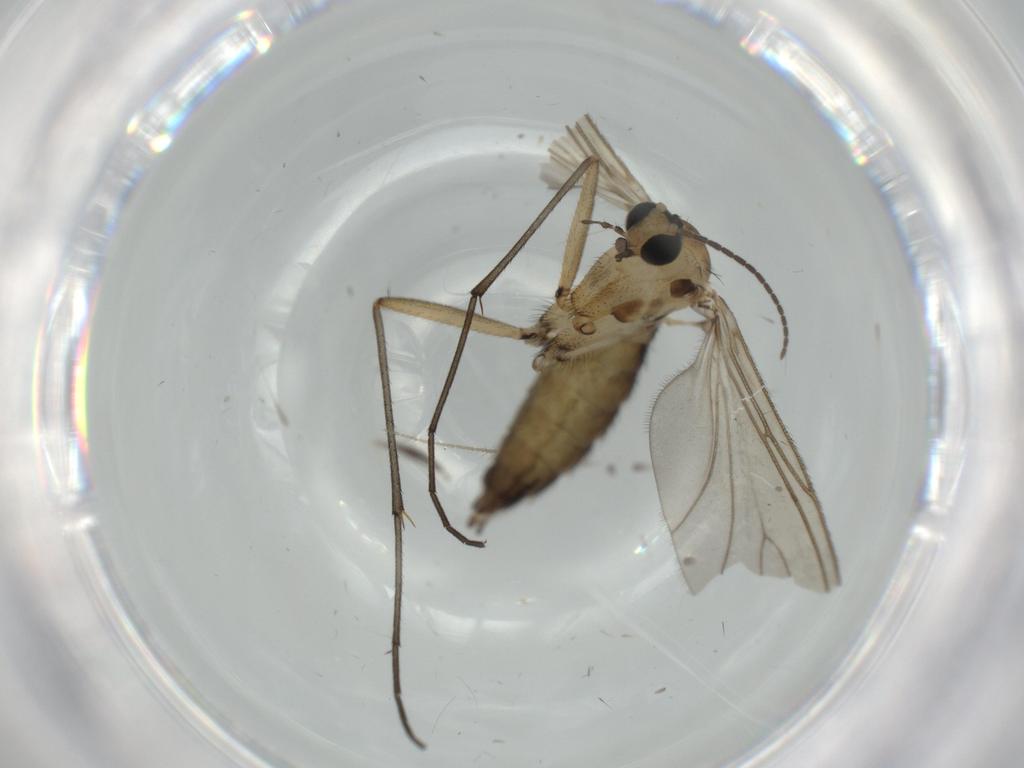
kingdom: Animalia
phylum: Arthropoda
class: Insecta
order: Diptera
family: Sciaridae
